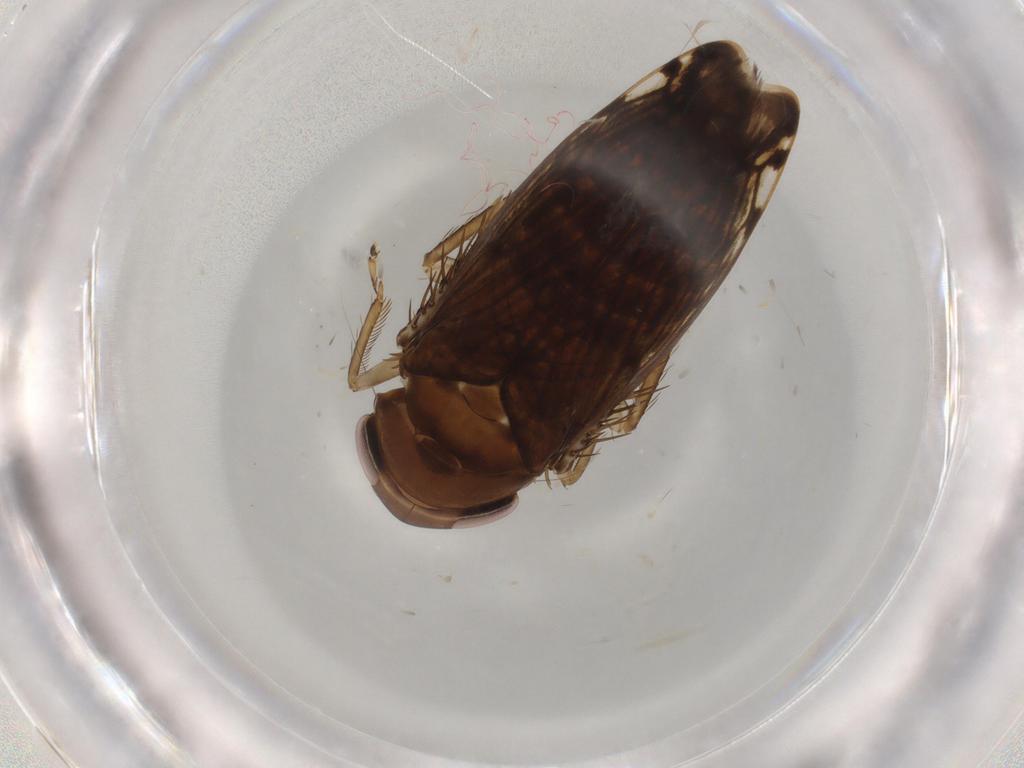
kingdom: Animalia
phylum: Arthropoda
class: Insecta
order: Hemiptera
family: Cicadellidae
